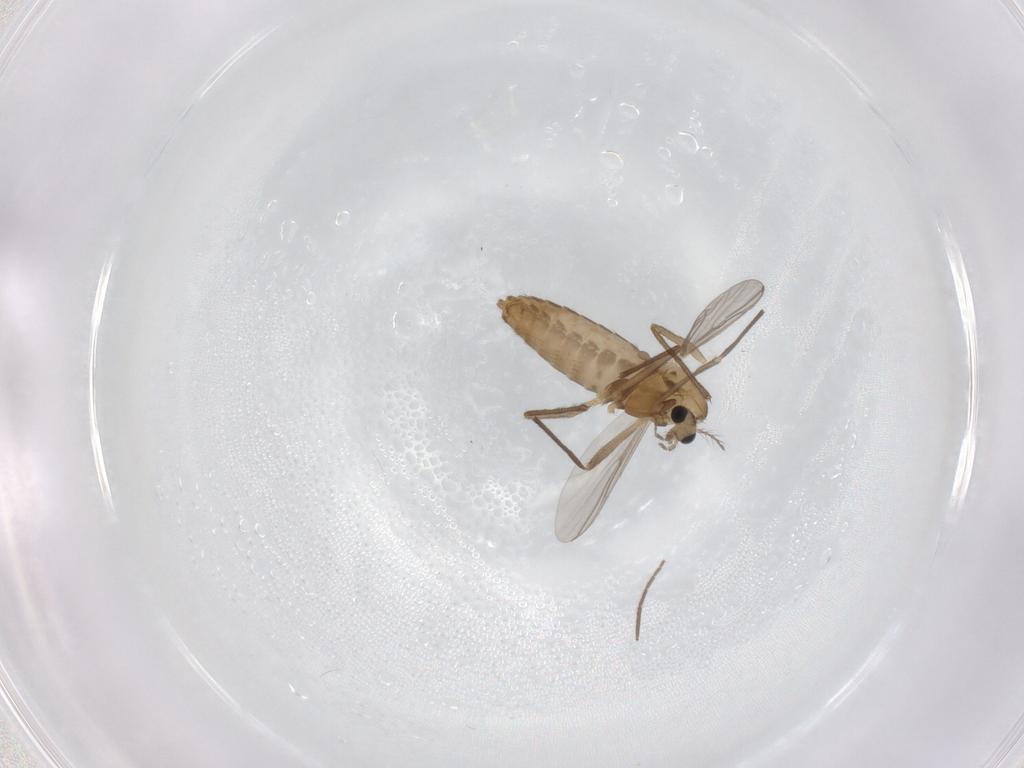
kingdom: Animalia
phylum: Arthropoda
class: Insecta
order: Diptera
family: Chironomidae
